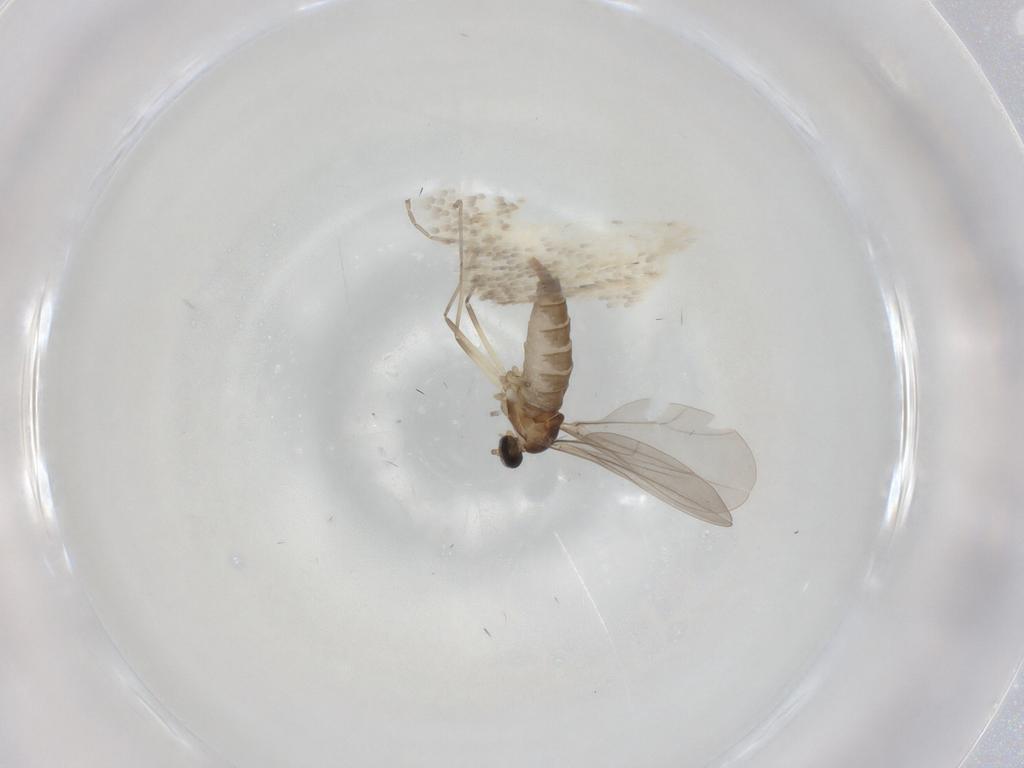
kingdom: Animalia
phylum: Arthropoda
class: Insecta
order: Diptera
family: Cecidomyiidae
